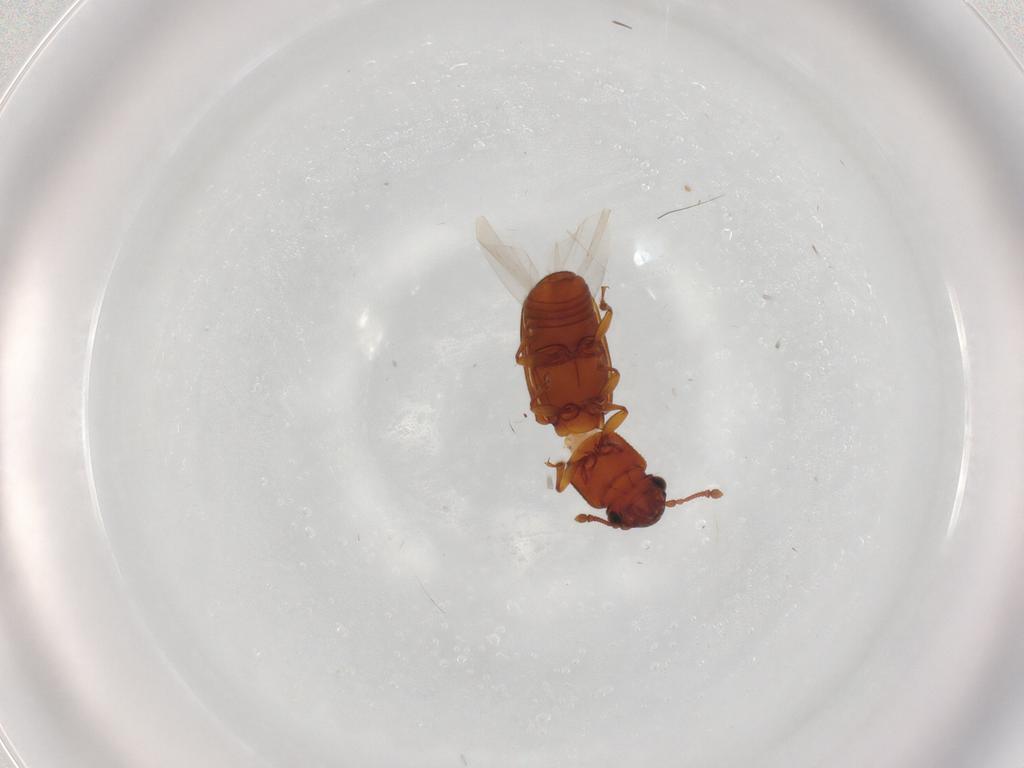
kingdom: Animalia
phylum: Arthropoda
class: Insecta
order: Coleoptera
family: Monotomidae
